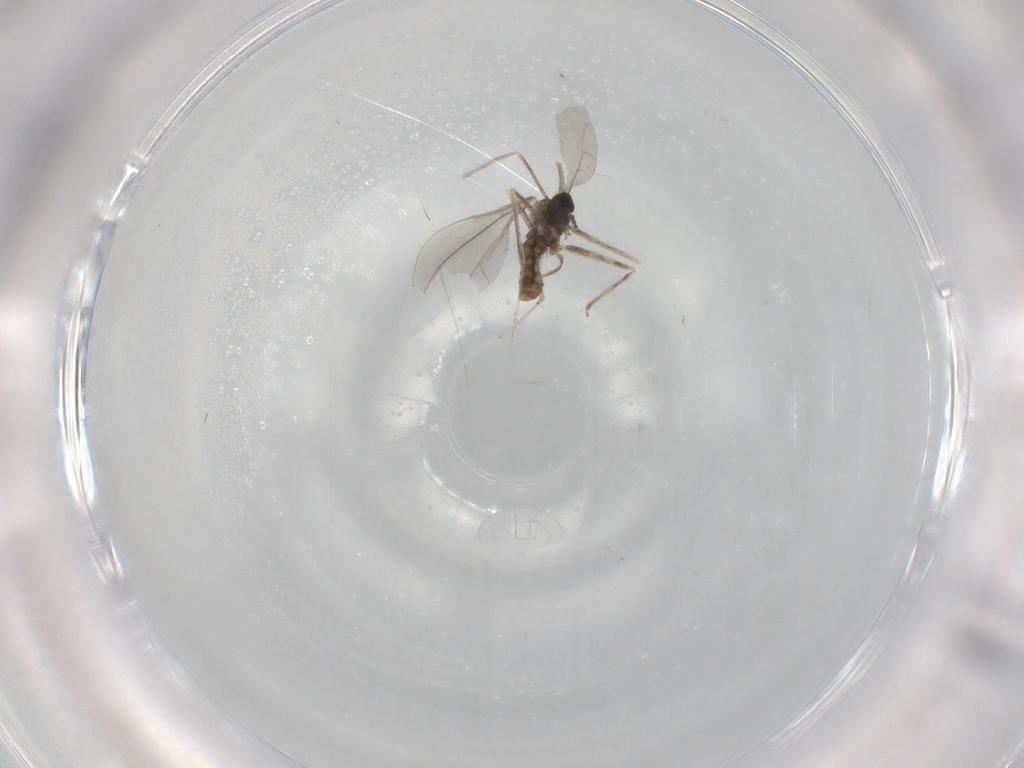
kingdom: Animalia
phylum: Arthropoda
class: Insecta
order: Diptera
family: Cecidomyiidae
